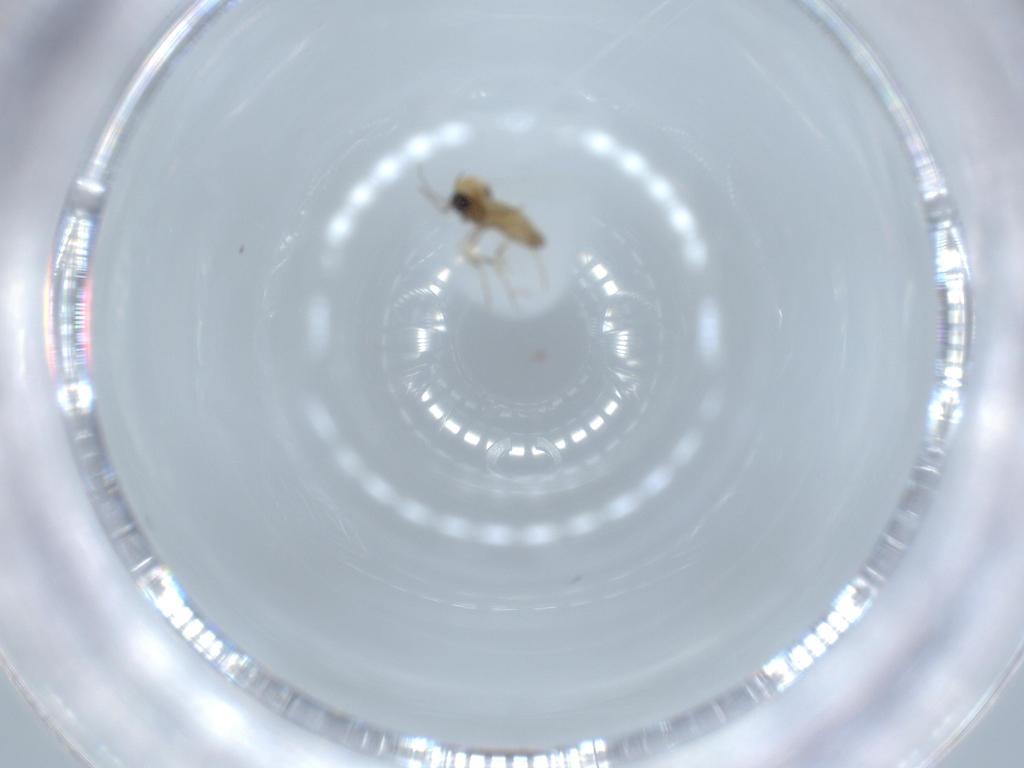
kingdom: Animalia
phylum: Arthropoda
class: Insecta
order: Diptera
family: Ceratopogonidae
